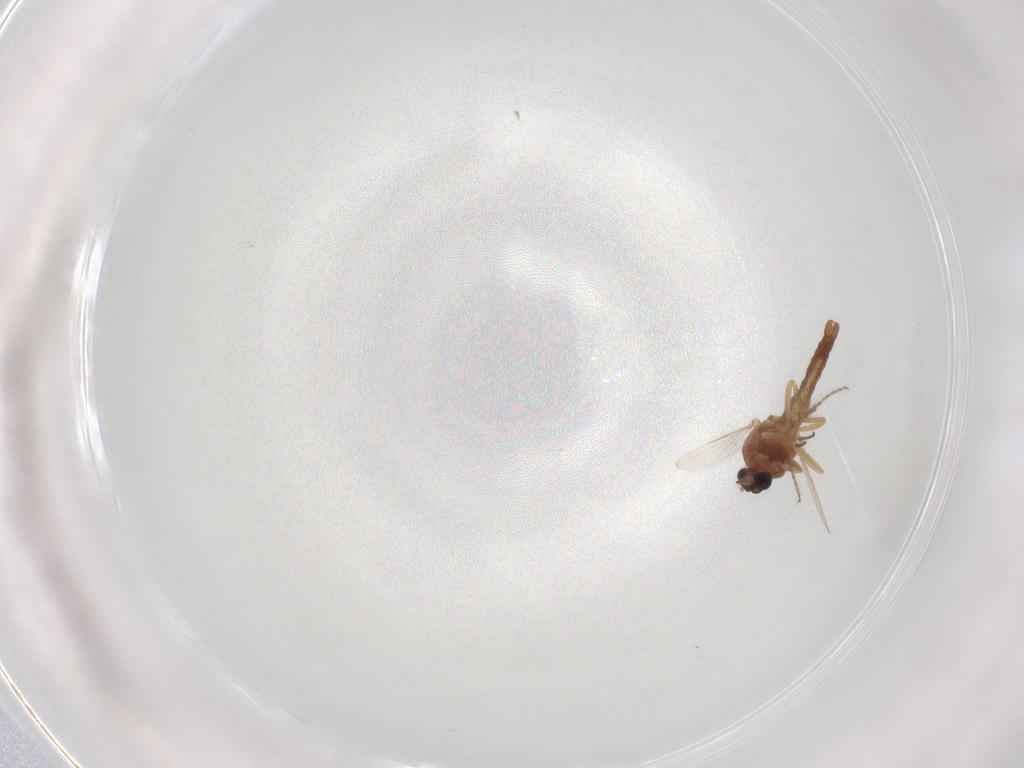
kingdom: Animalia
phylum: Arthropoda
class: Insecta
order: Diptera
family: Ceratopogonidae
